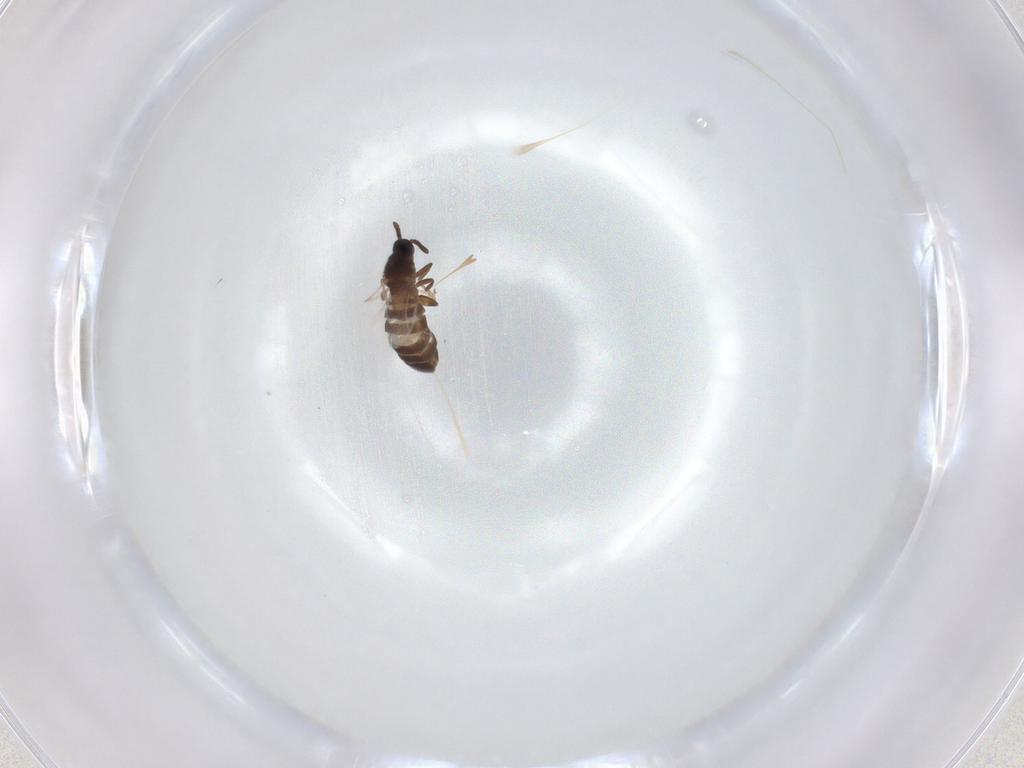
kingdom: Animalia
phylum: Arthropoda
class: Insecta
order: Diptera
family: Scatopsidae
